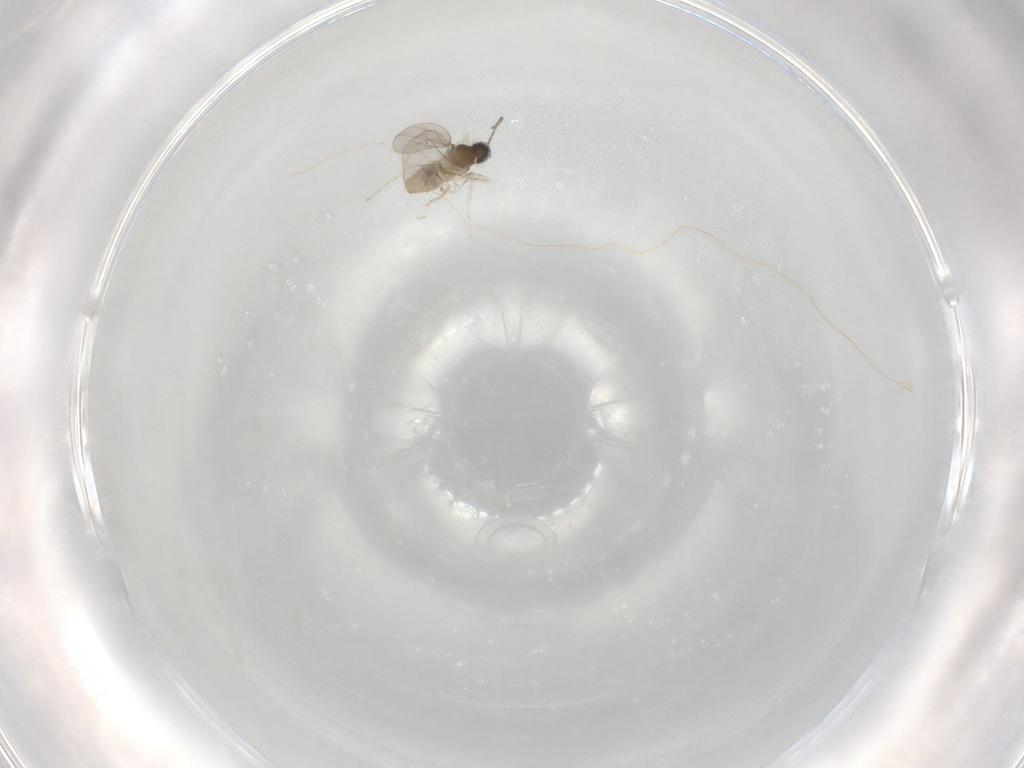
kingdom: Animalia
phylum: Arthropoda
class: Insecta
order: Diptera
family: Cecidomyiidae
